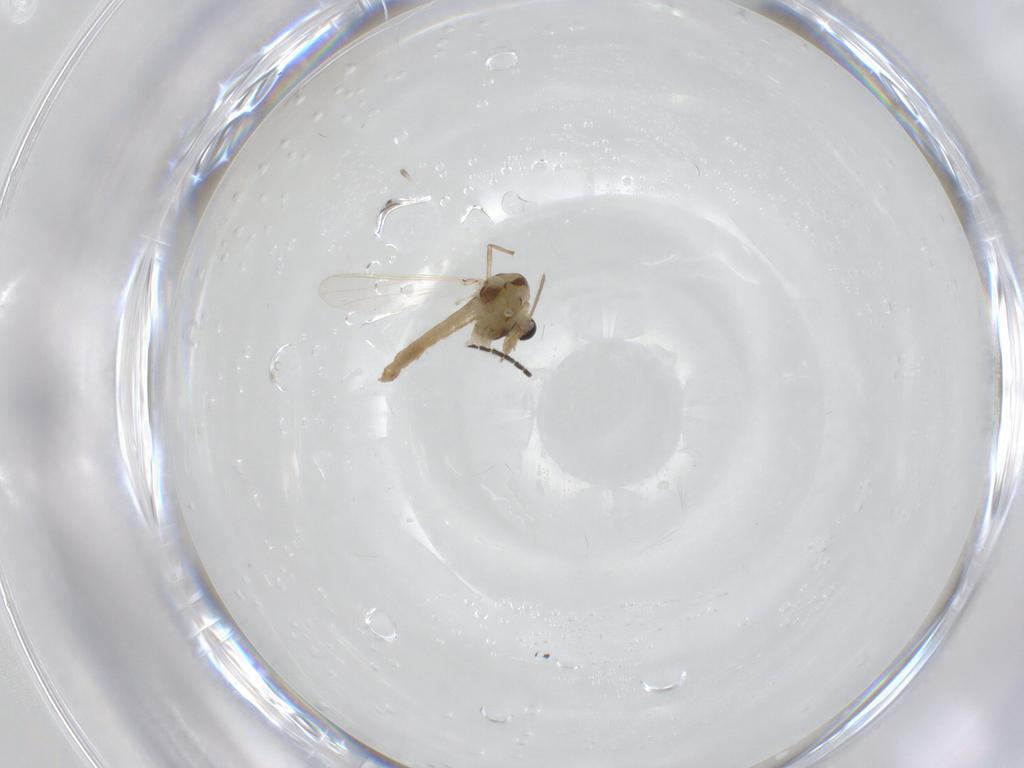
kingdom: Animalia
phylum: Arthropoda
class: Insecta
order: Diptera
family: Chironomidae
